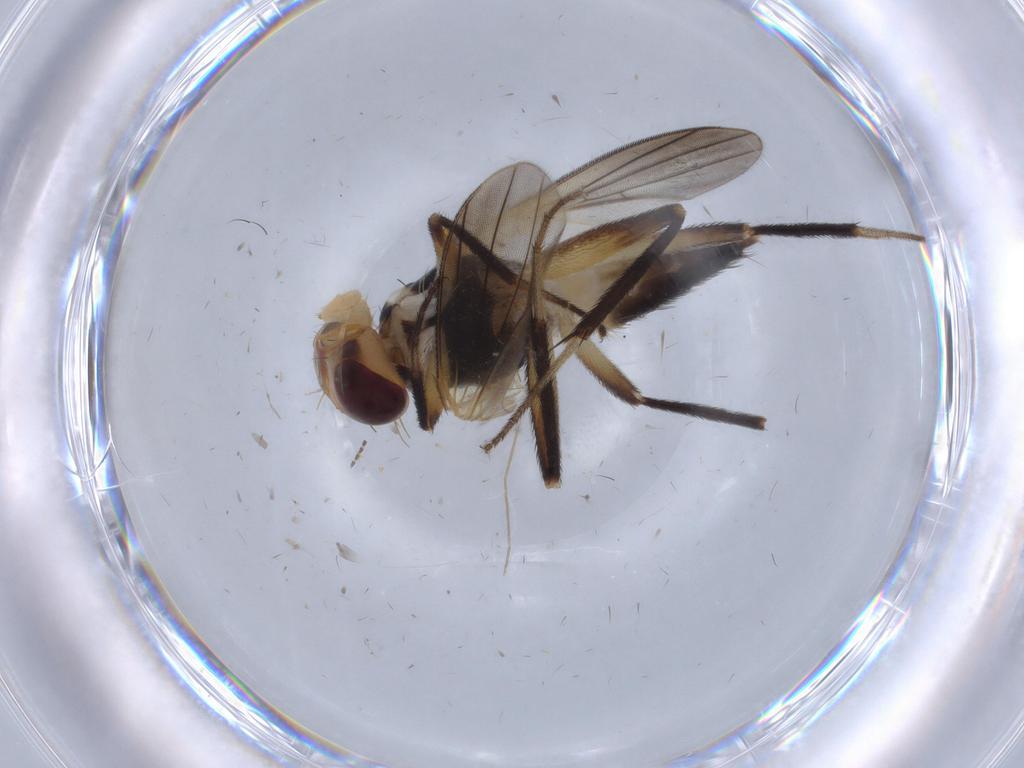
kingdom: Animalia
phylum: Arthropoda
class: Insecta
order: Diptera
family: Clusiidae
